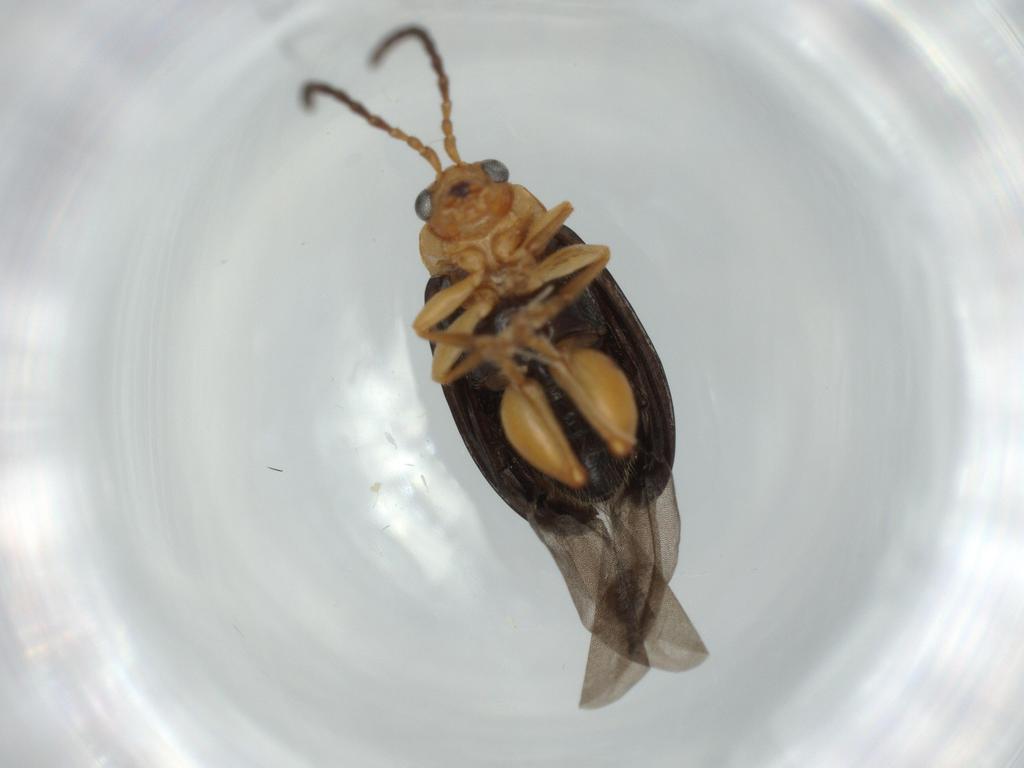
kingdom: Animalia
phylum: Arthropoda
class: Insecta
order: Coleoptera
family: Chrysomelidae
